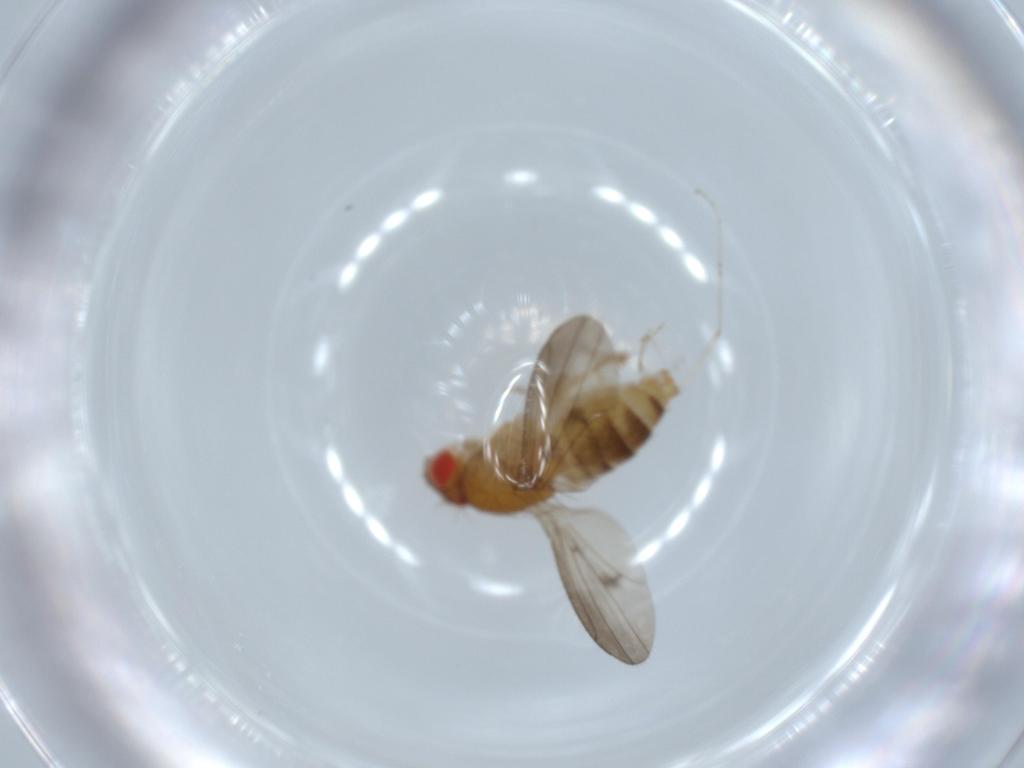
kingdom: Animalia
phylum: Arthropoda
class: Insecta
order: Diptera
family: Drosophilidae
